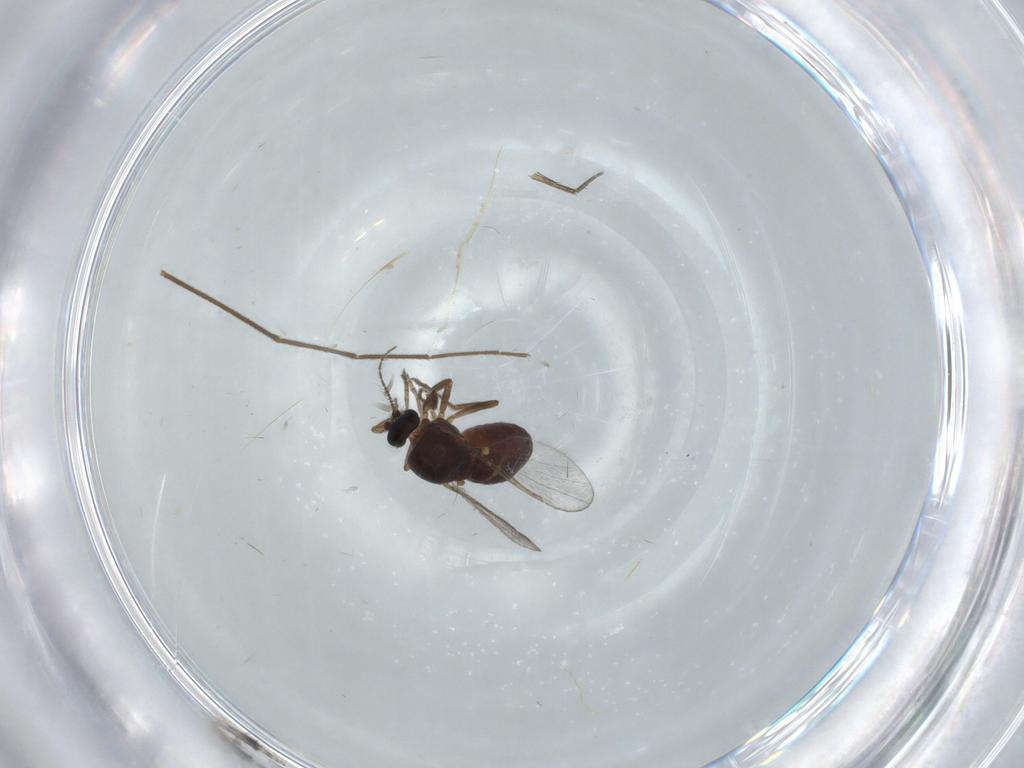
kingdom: Animalia
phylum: Arthropoda
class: Insecta
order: Diptera
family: Ceratopogonidae
